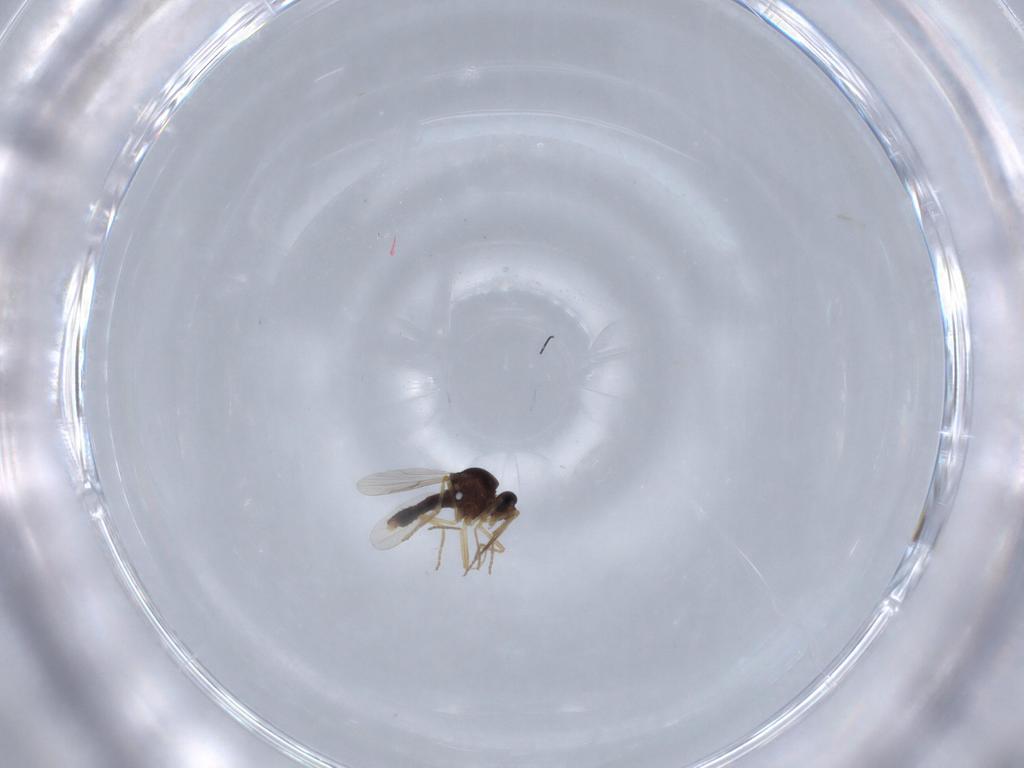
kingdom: Animalia
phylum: Arthropoda
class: Insecta
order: Diptera
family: Ceratopogonidae
